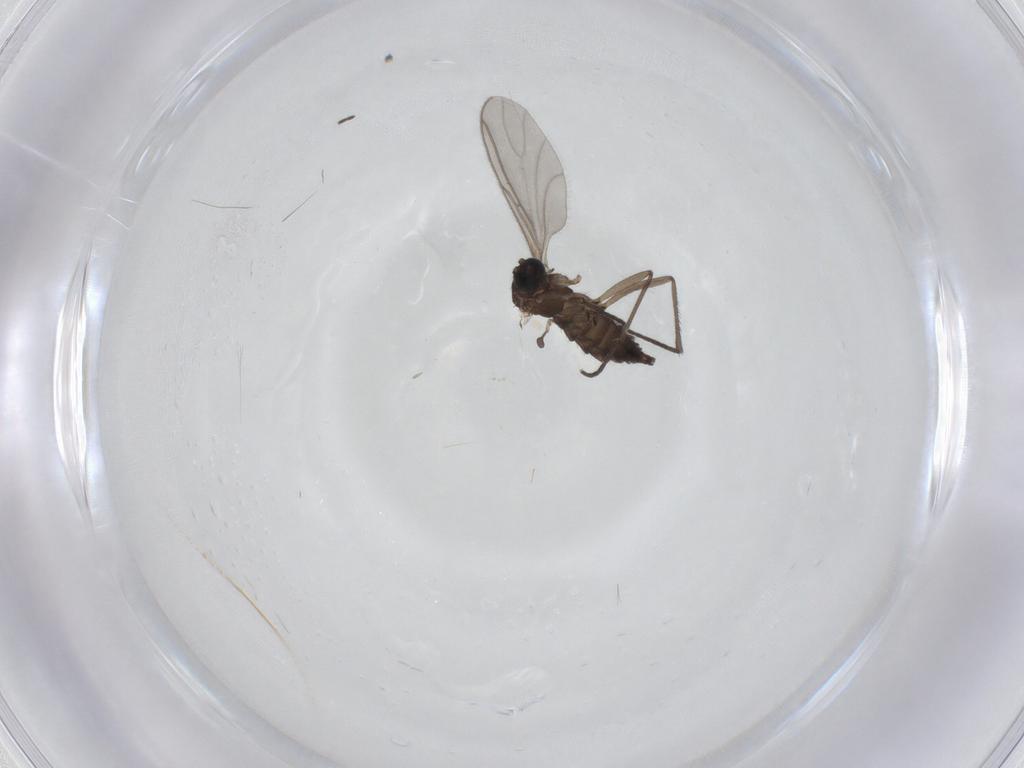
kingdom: Animalia
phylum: Arthropoda
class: Insecta
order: Diptera
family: Sciaridae
